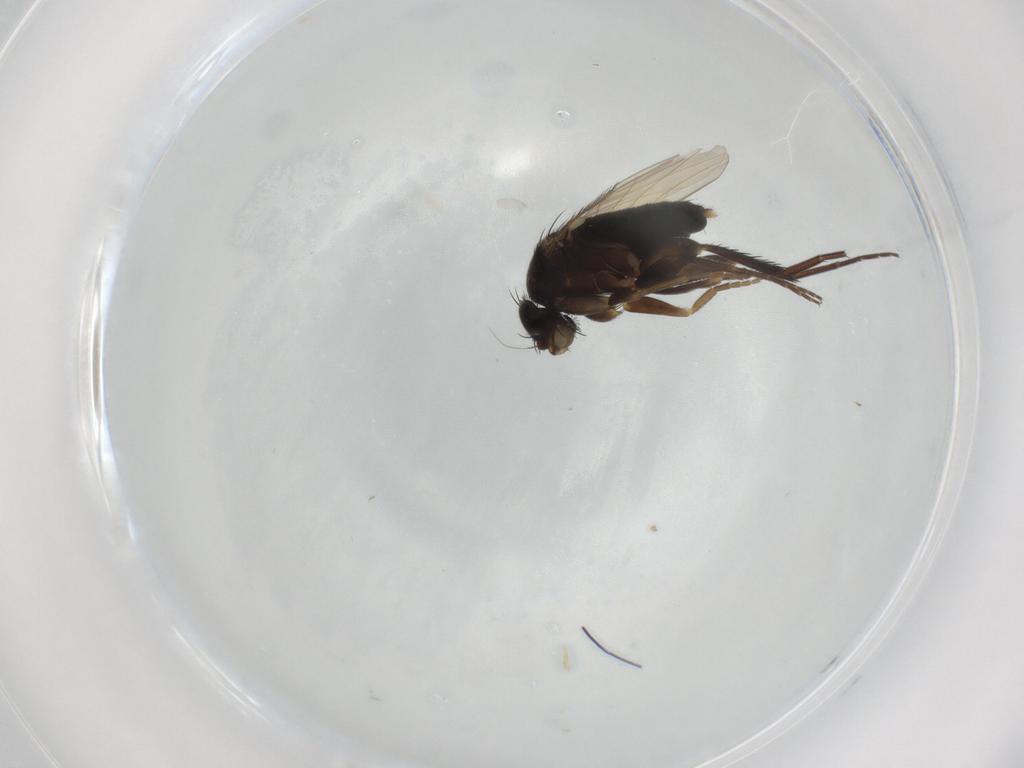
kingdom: Animalia
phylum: Arthropoda
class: Insecta
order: Diptera
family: Phoridae
